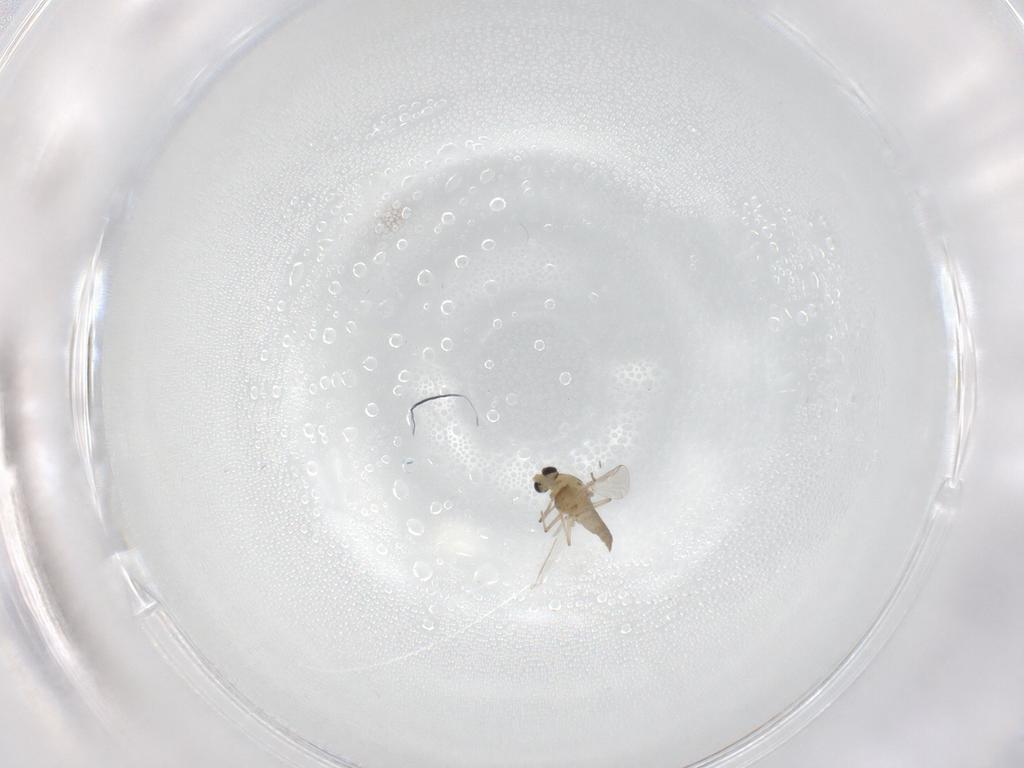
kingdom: Animalia
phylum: Arthropoda
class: Insecta
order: Diptera
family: Chironomidae
